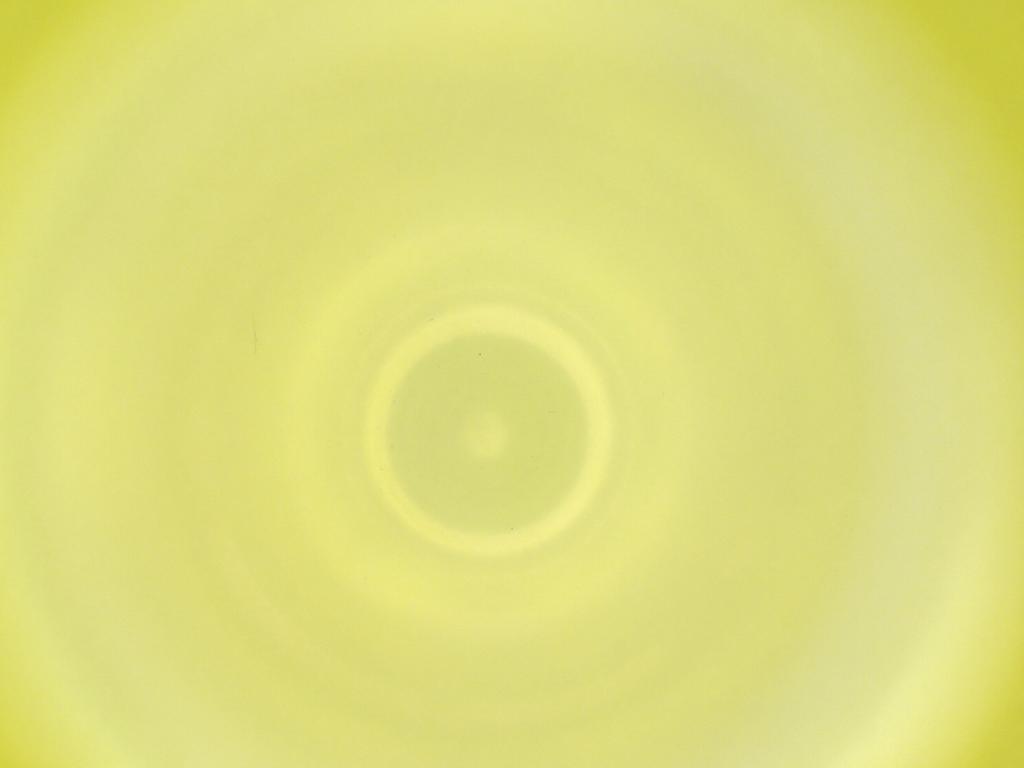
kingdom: Animalia
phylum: Arthropoda
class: Insecta
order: Diptera
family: Cecidomyiidae
